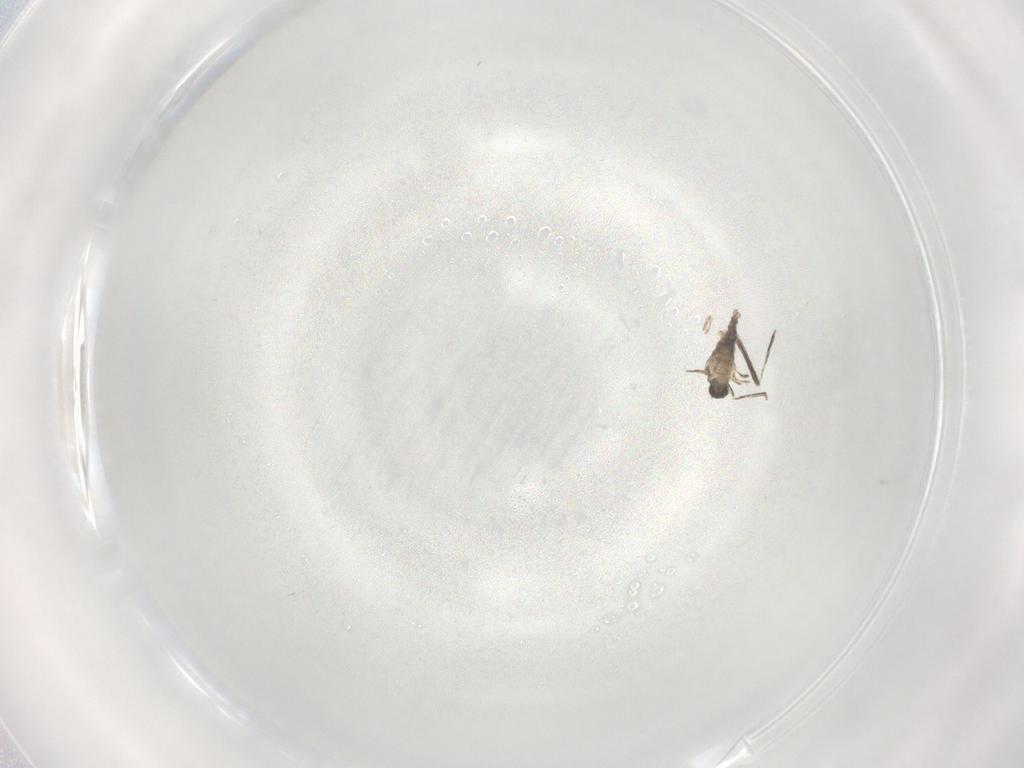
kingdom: Animalia
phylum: Arthropoda
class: Insecta
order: Diptera
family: Cecidomyiidae
